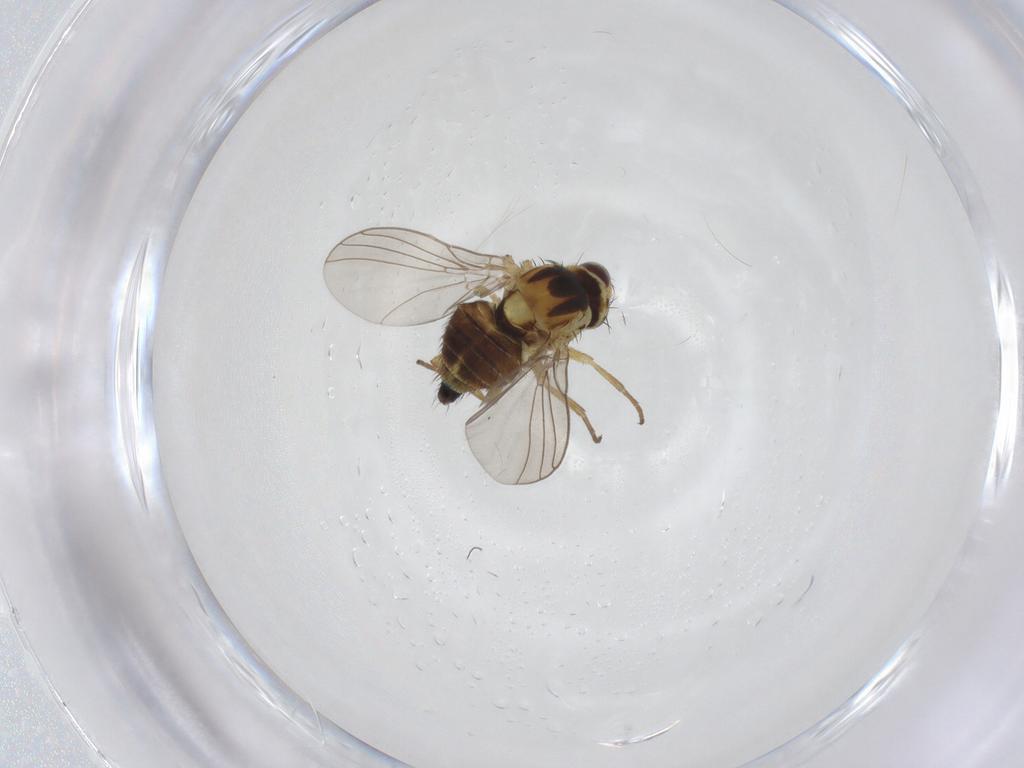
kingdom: Animalia
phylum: Arthropoda
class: Insecta
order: Diptera
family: Agromyzidae
